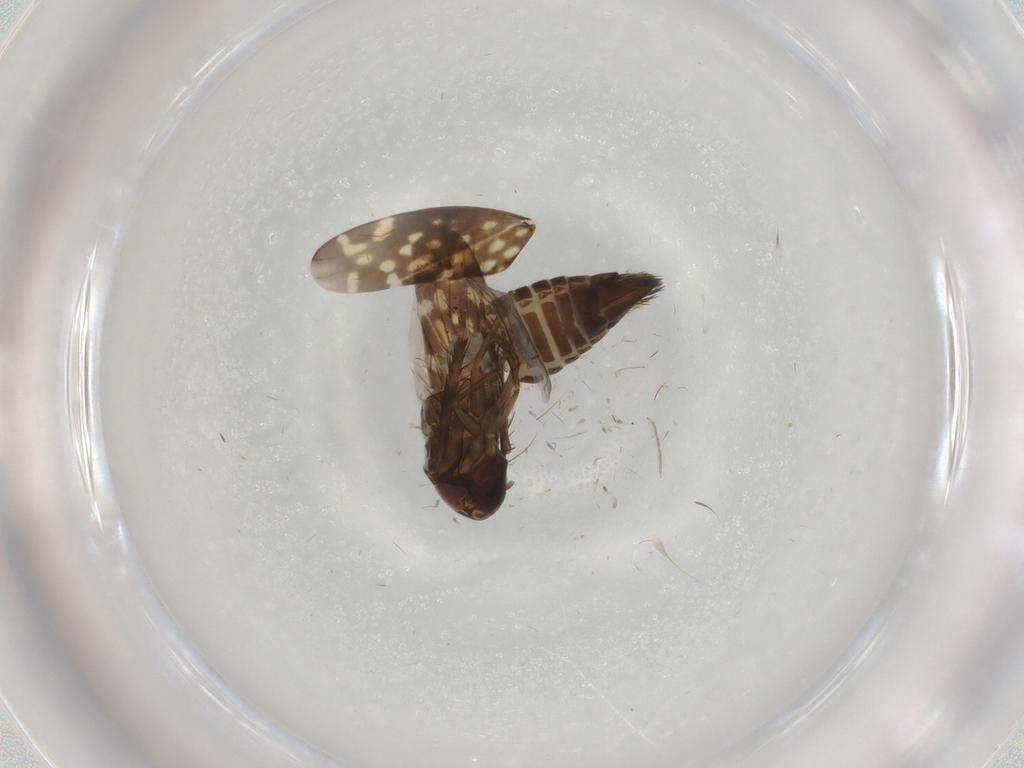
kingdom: Animalia
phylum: Arthropoda
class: Insecta
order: Hemiptera
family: Cicadellidae
